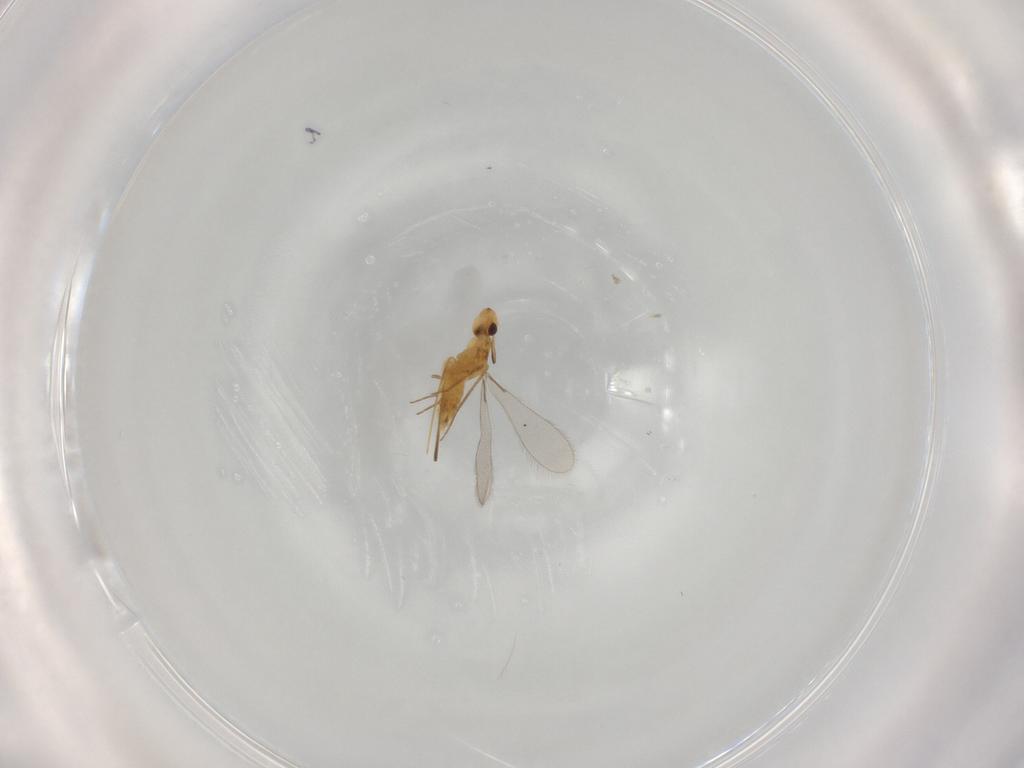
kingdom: Animalia
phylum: Arthropoda
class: Insecta
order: Hymenoptera
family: Mymaridae
